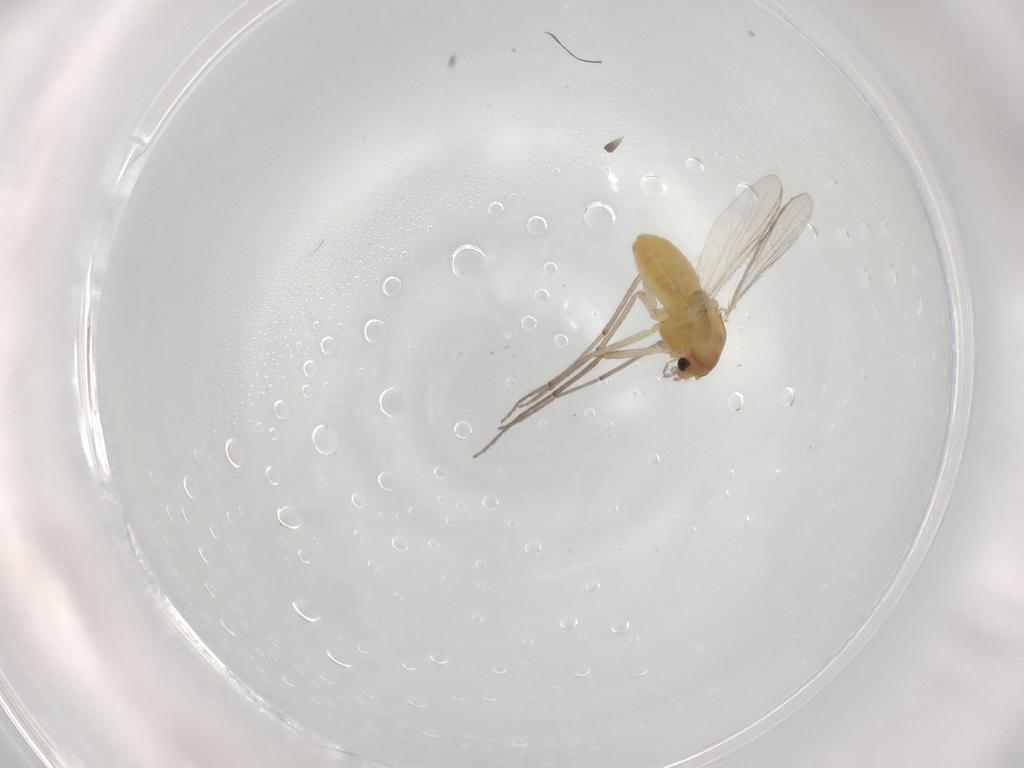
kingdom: Animalia
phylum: Arthropoda
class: Insecta
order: Diptera
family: Chironomidae
